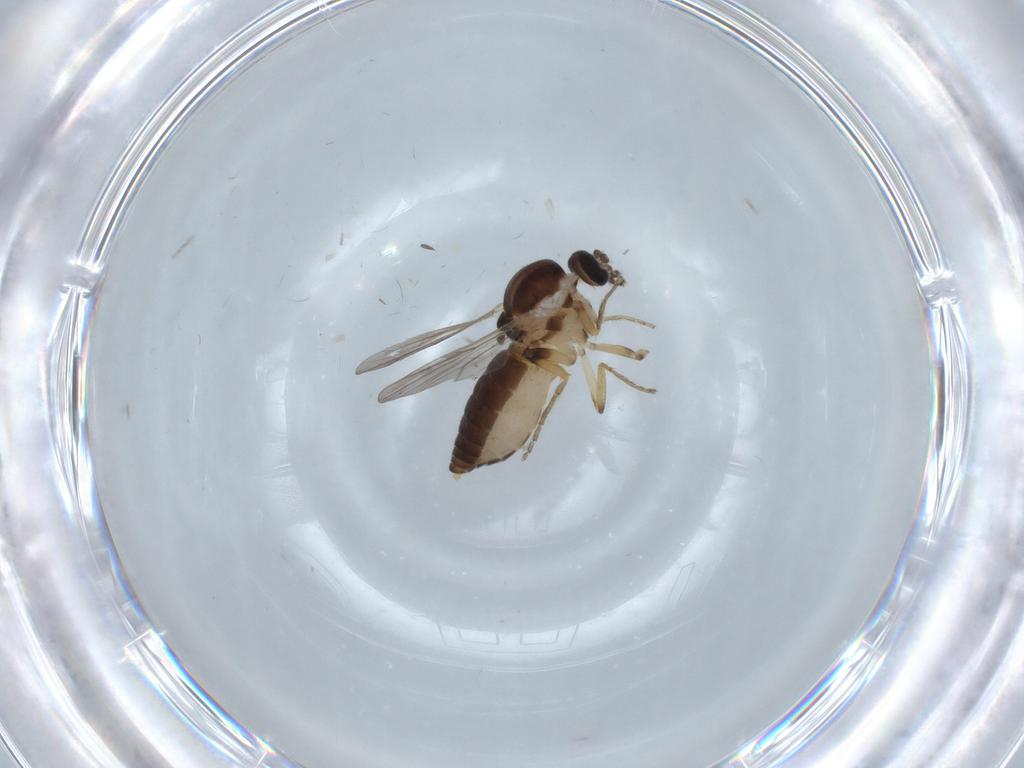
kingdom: Animalia
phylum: Arthropoda
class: Insecta
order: Diptera
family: Ceratopogonidae
